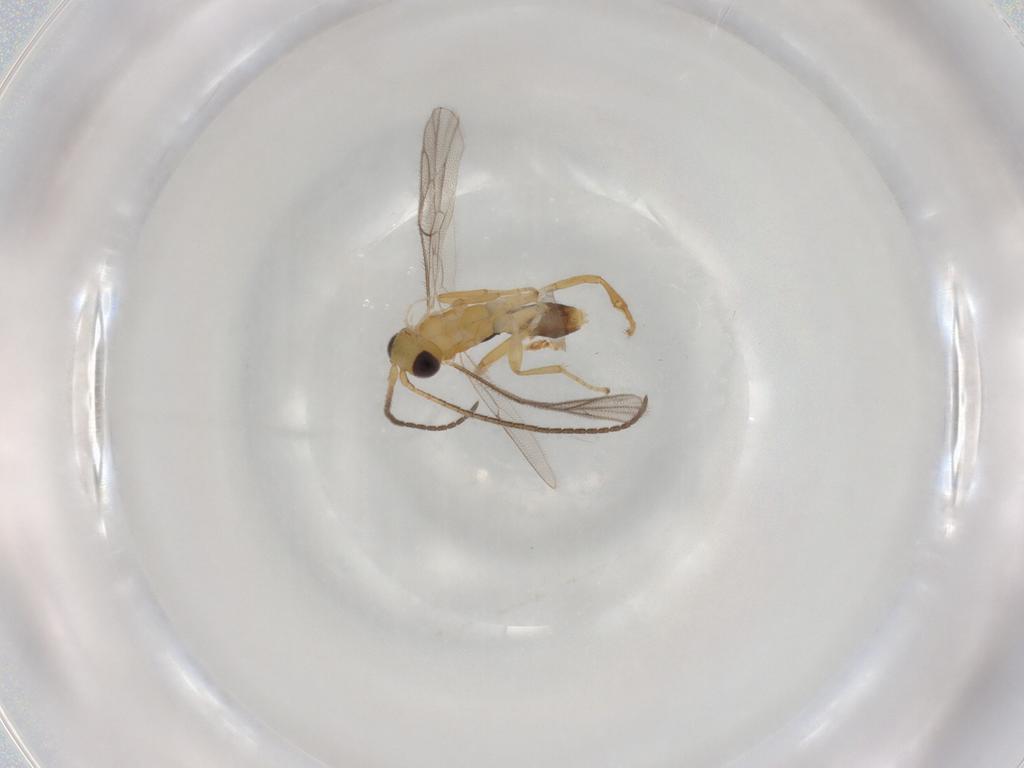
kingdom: Animalia
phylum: Arthropoda
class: Insecta
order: Hymenoptera
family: Ichneumonidae
